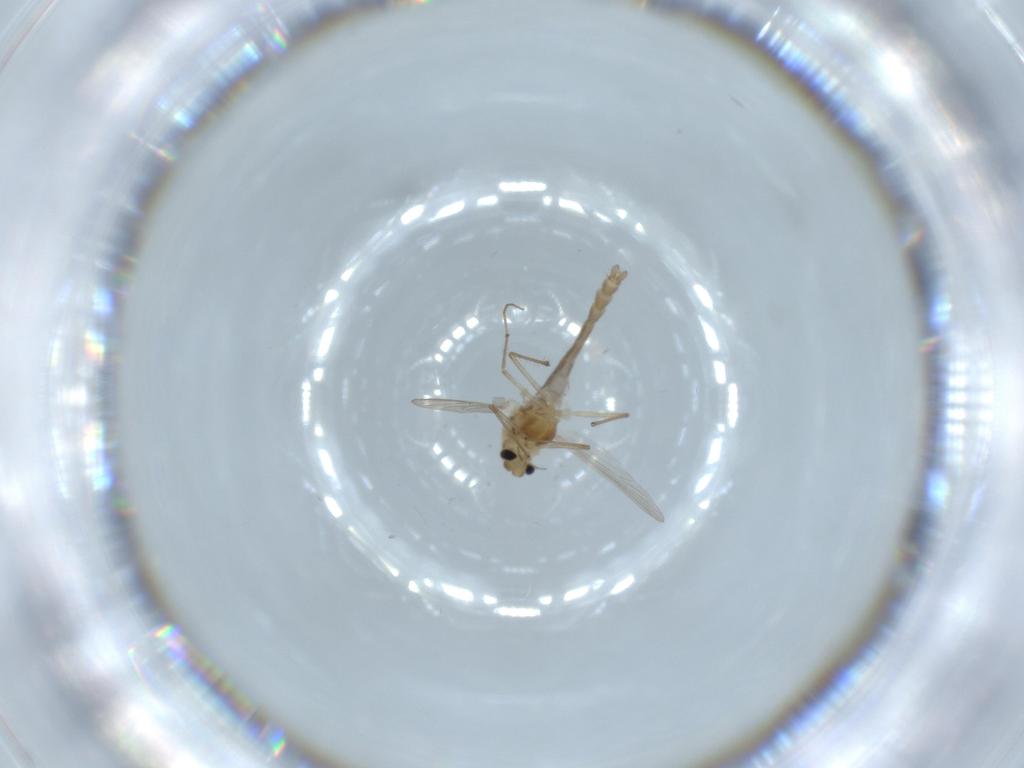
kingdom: Animalia
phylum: Arthropoda
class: Insecta
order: Diptera
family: Chironomidae
